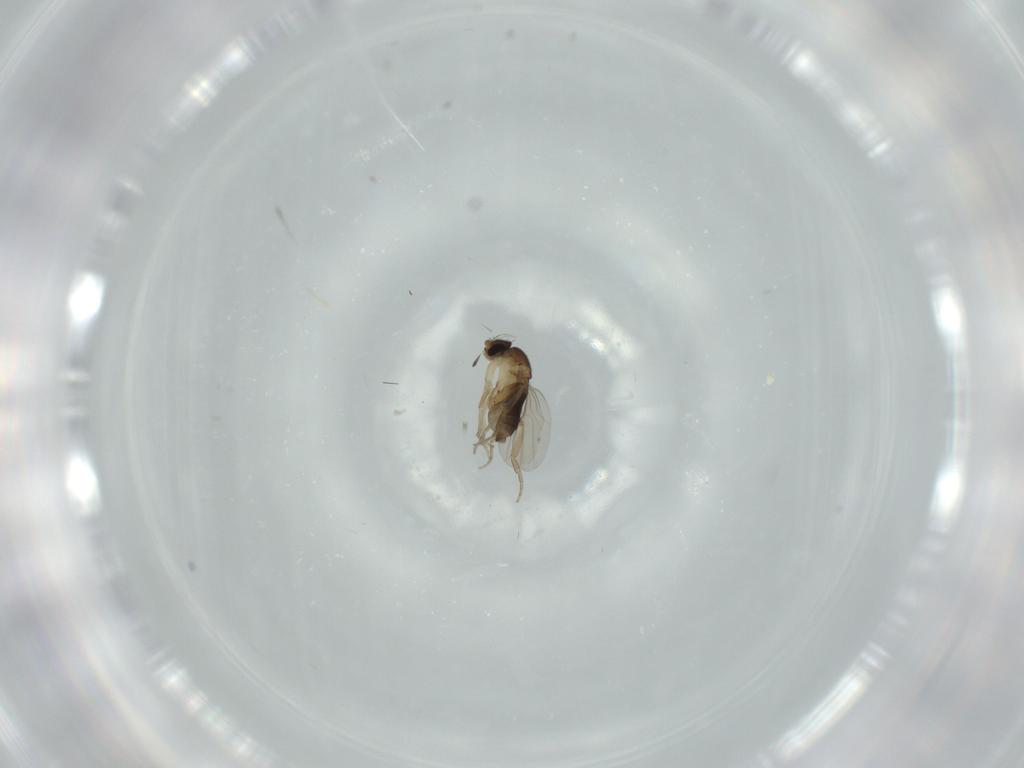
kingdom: Animalia
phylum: Arthropoda
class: Insecta
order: Diptera
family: Phoridae
